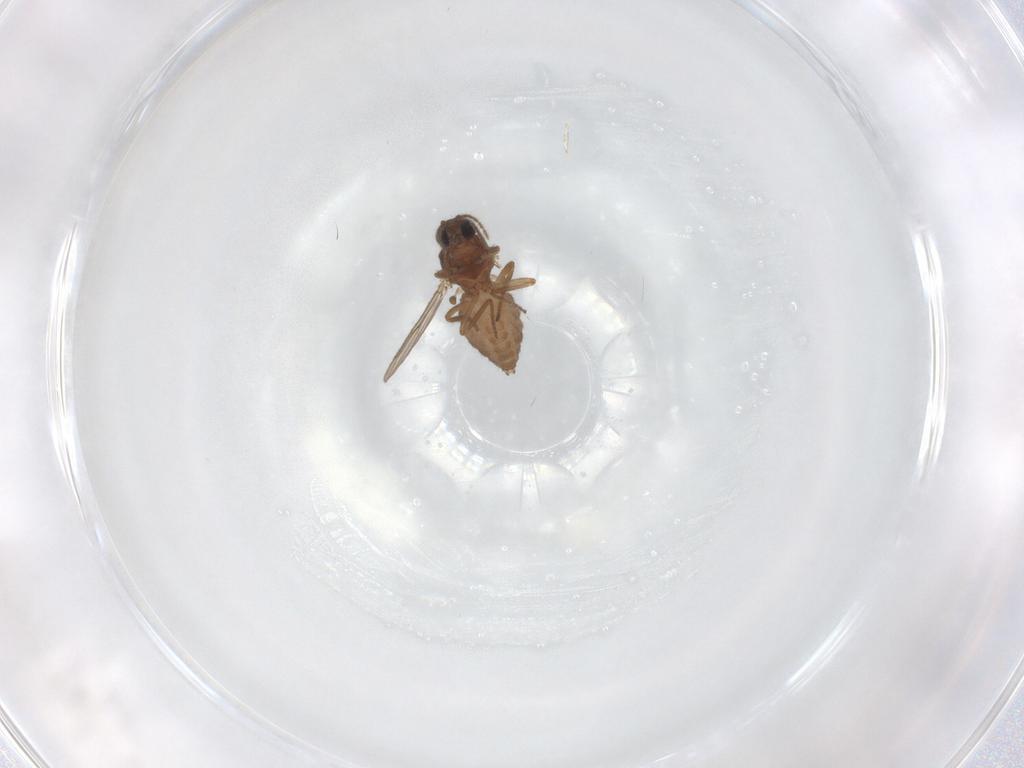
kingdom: Animalia
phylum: Arthropoda
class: Insecta
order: Diptera
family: Ceratopogonidae
